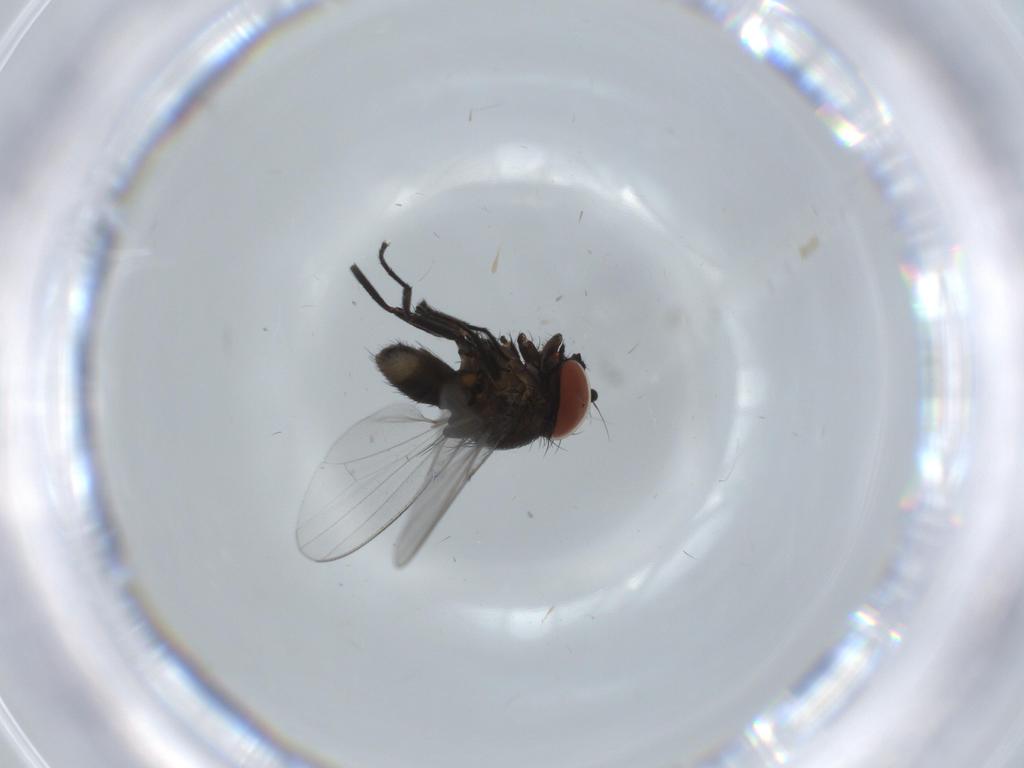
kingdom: Animalia
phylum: Arthropoda
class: Insecta
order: Diptera
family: Milichiidae
